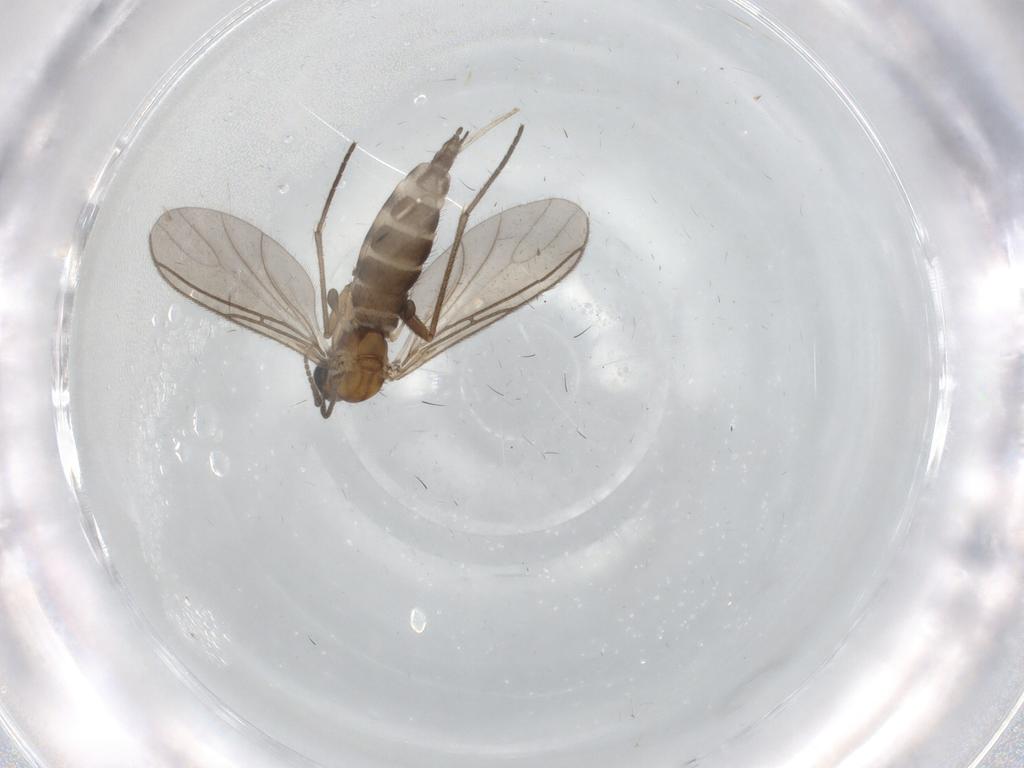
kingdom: Animalia
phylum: Arthropoda
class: Insecta
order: Diptera
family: Sciaridae
